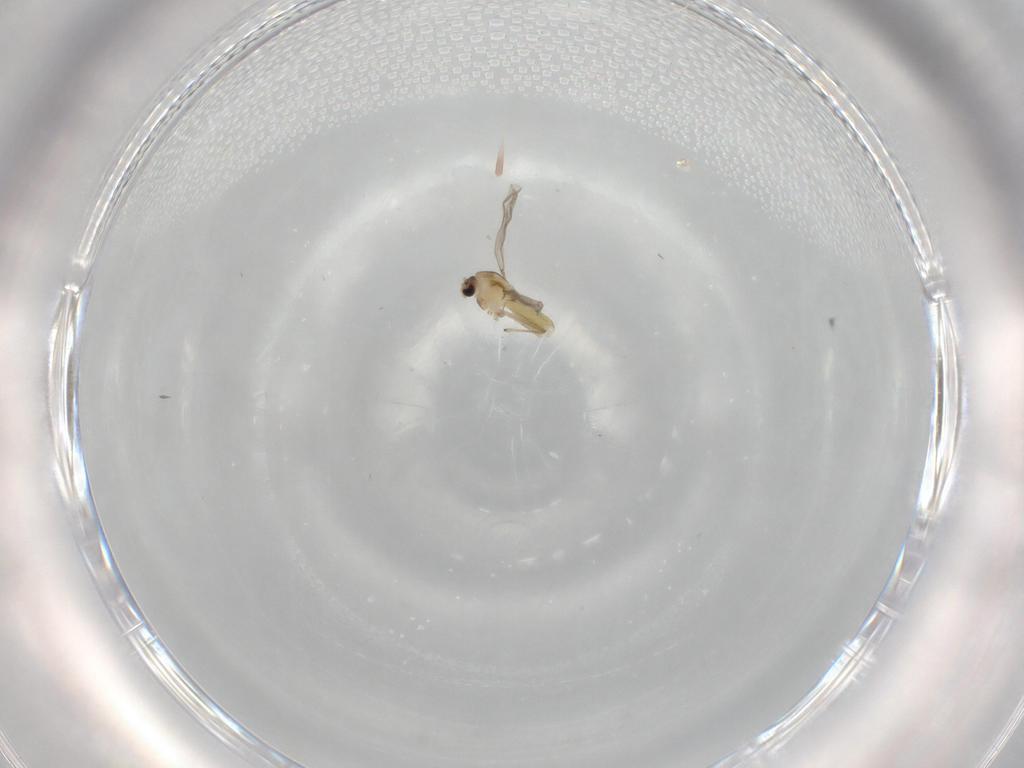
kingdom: Animalia
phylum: Arthropoda
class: Insecta
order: Diptera
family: Chironomidae
